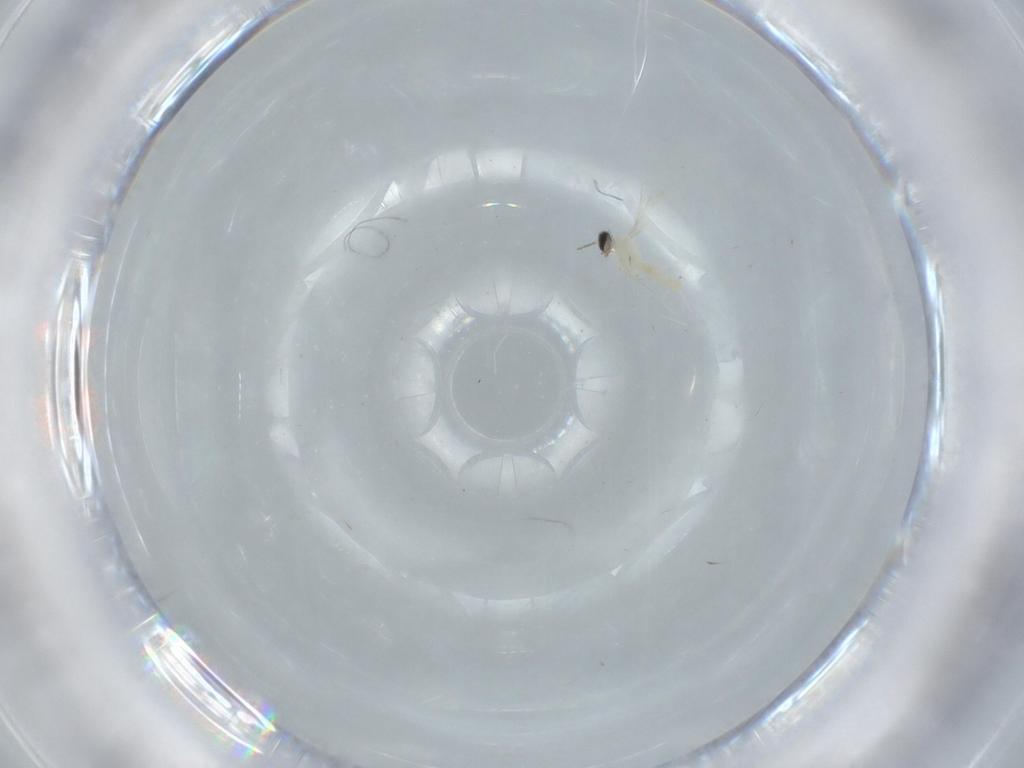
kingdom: Animalia
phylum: Arthropoda
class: Insecta
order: Diptera
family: Cecidomyiidae
